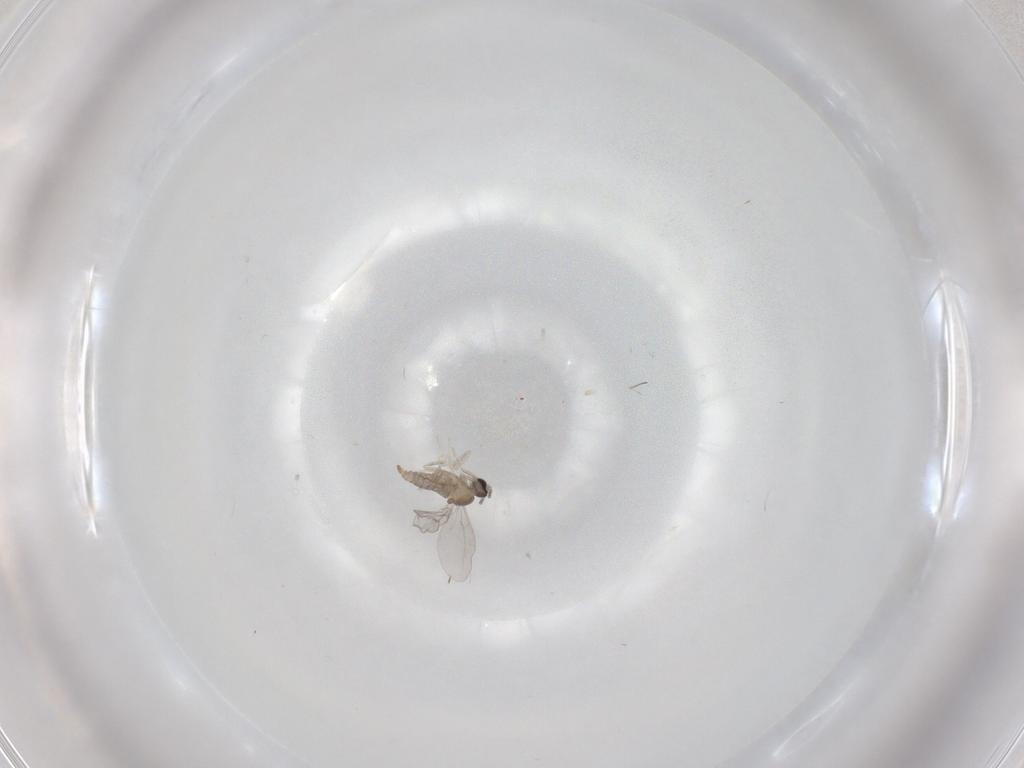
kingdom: Animalia
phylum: Arthropoda
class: Insecta
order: Diptera
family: Cecidomyiidae
